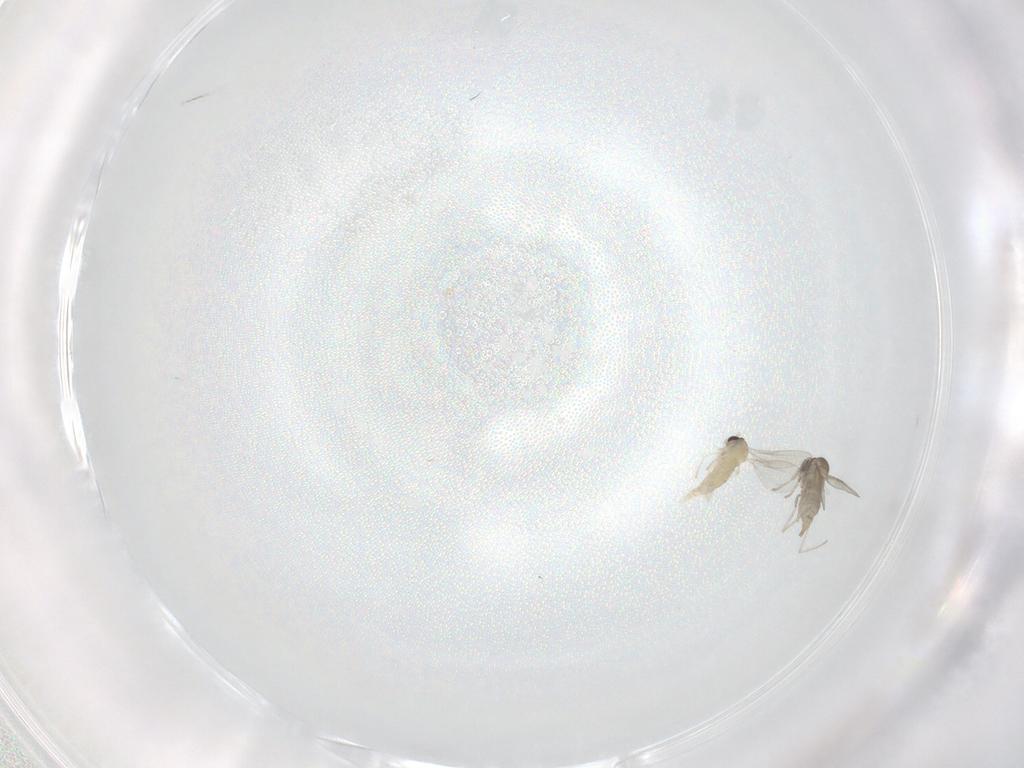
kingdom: Animalia
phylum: Arthropoda
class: Insecta
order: Diptera
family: Cecidomyiidae
